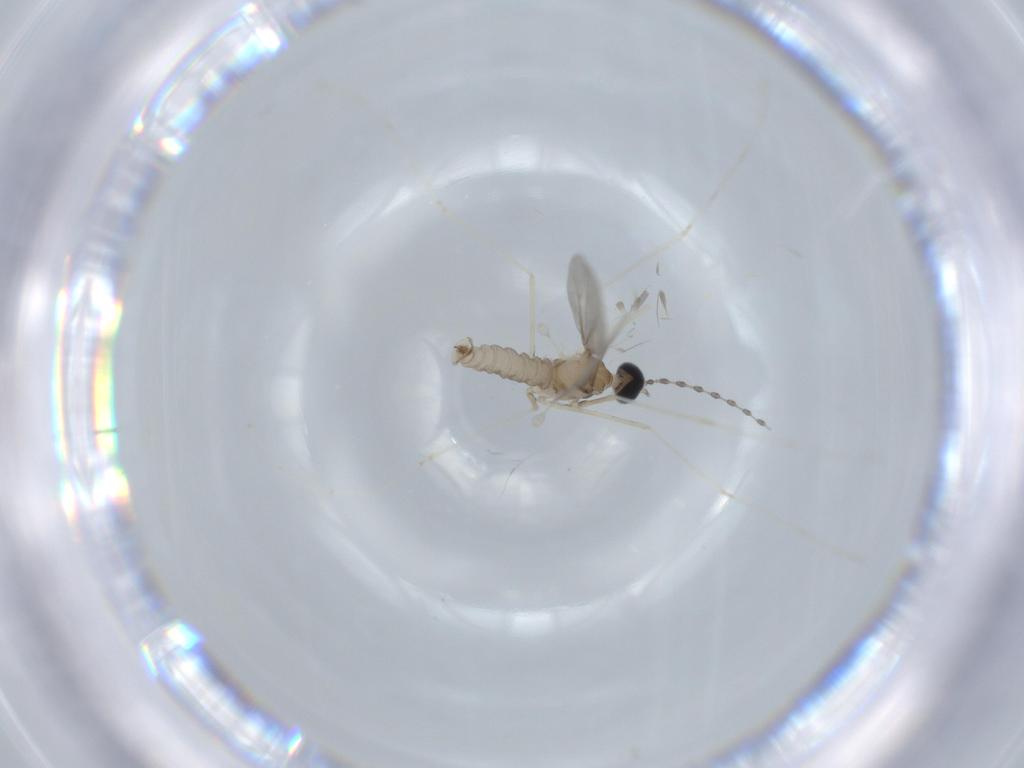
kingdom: Animalia
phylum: Arthropoda
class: Insecta
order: Diptera
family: Cecidomyiidae
